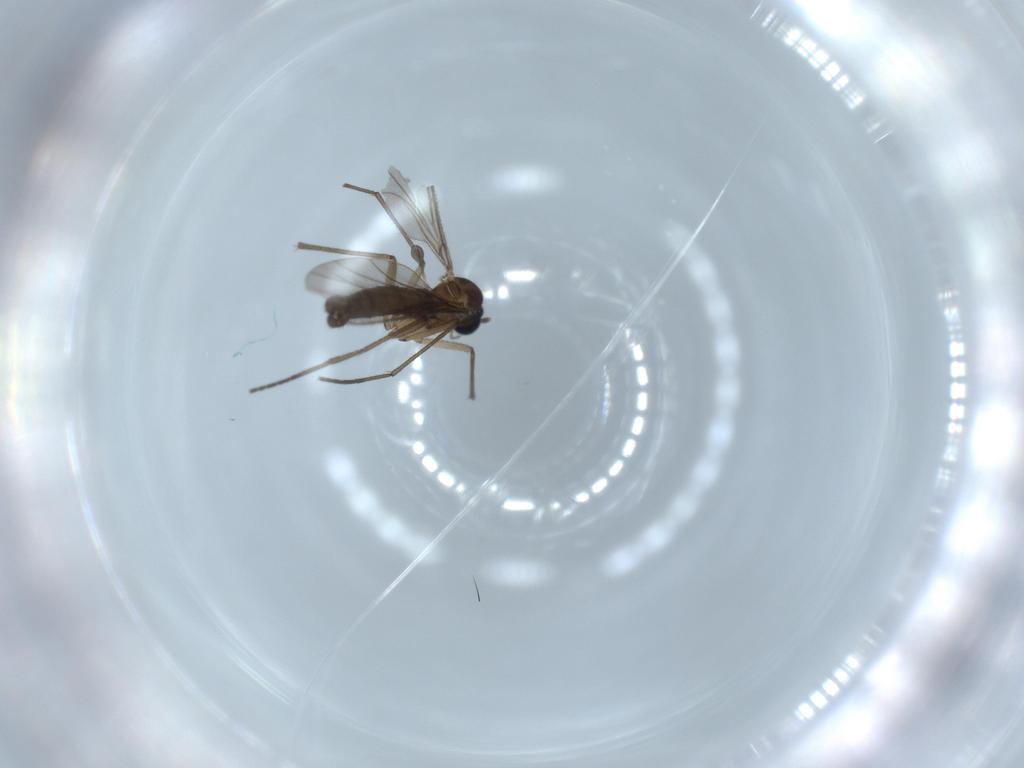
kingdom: Animalia
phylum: Arthropoda
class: Insecta
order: Diptera
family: Sciaridae
